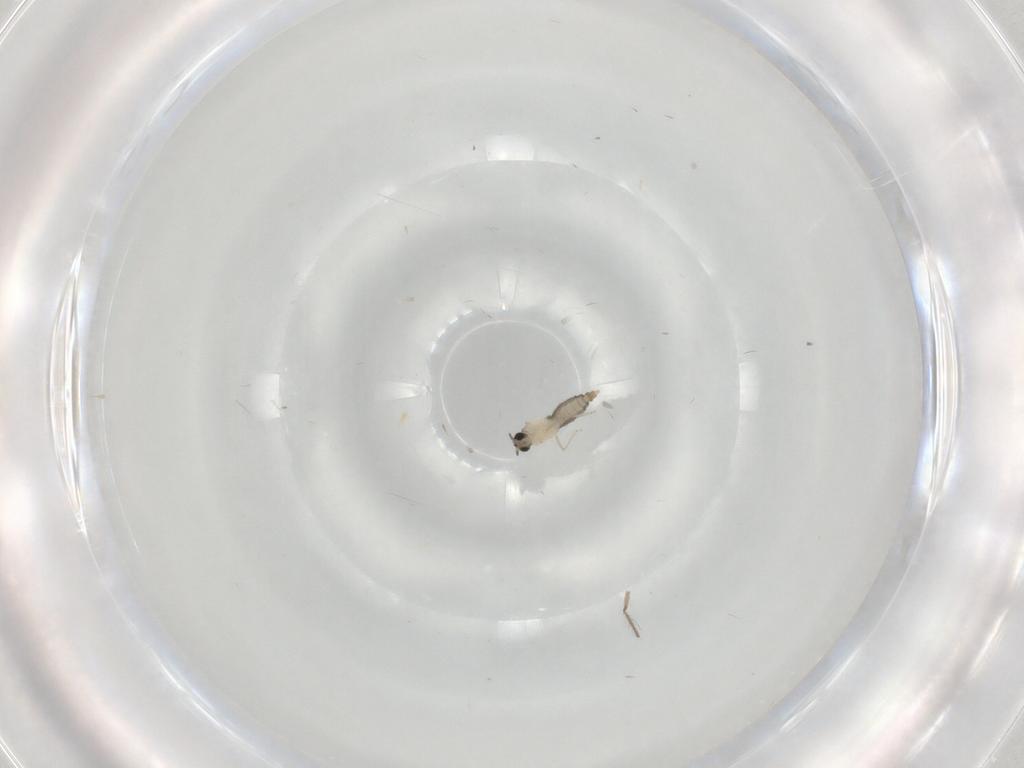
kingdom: Animalia
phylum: Arthropoda
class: Insecta
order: Diptera
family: Cecidomyiidae
